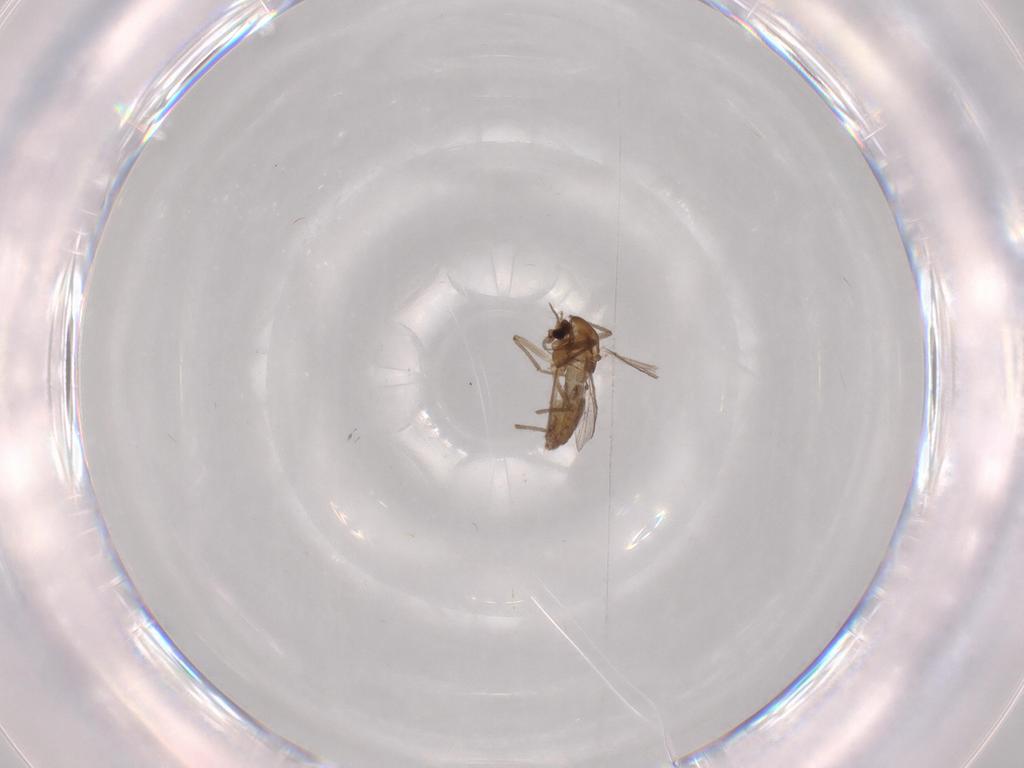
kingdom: Animalia
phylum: Arthropoda
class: Insecta
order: Diptera
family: Chironomidae
